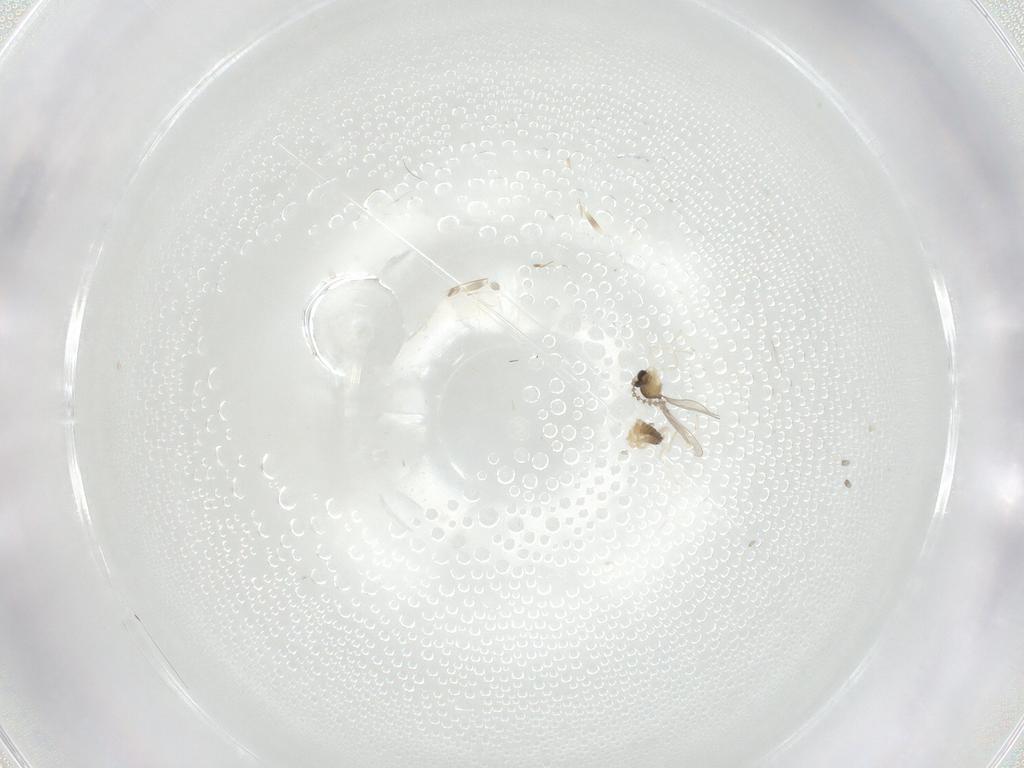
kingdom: Animalia
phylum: Arthropoda
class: Insecta
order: Diptera
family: Cecidomyiidae
